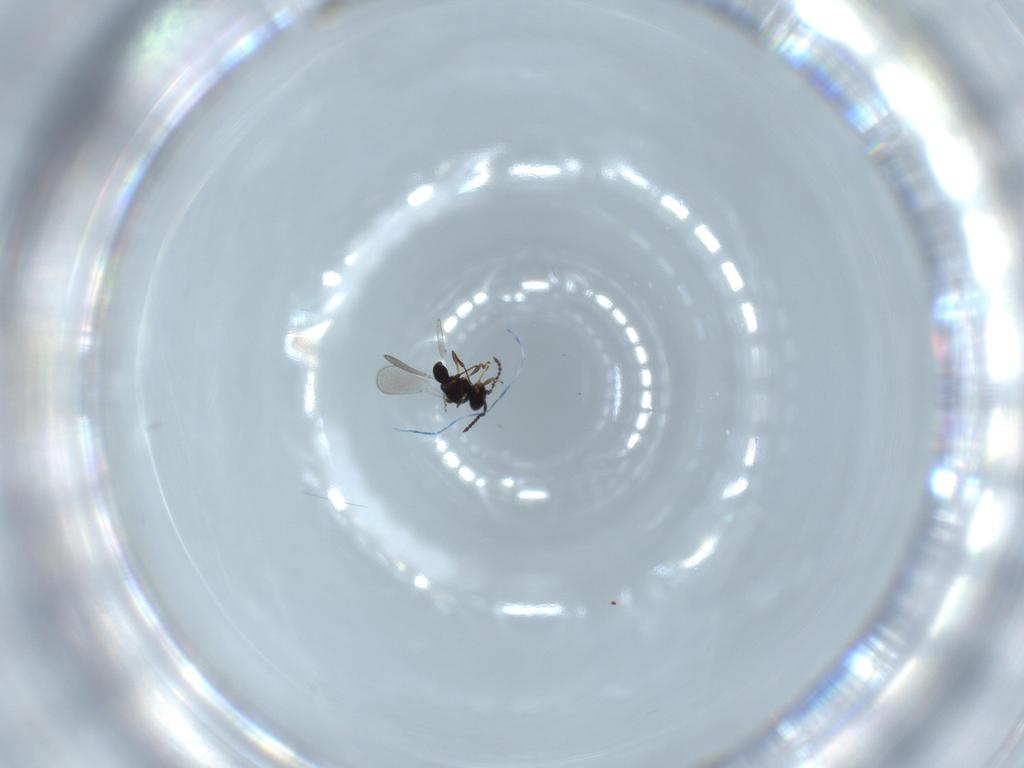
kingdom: Animalia
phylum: Arthropoda
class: Insecta
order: Hymenoptera
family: Platygastridae
